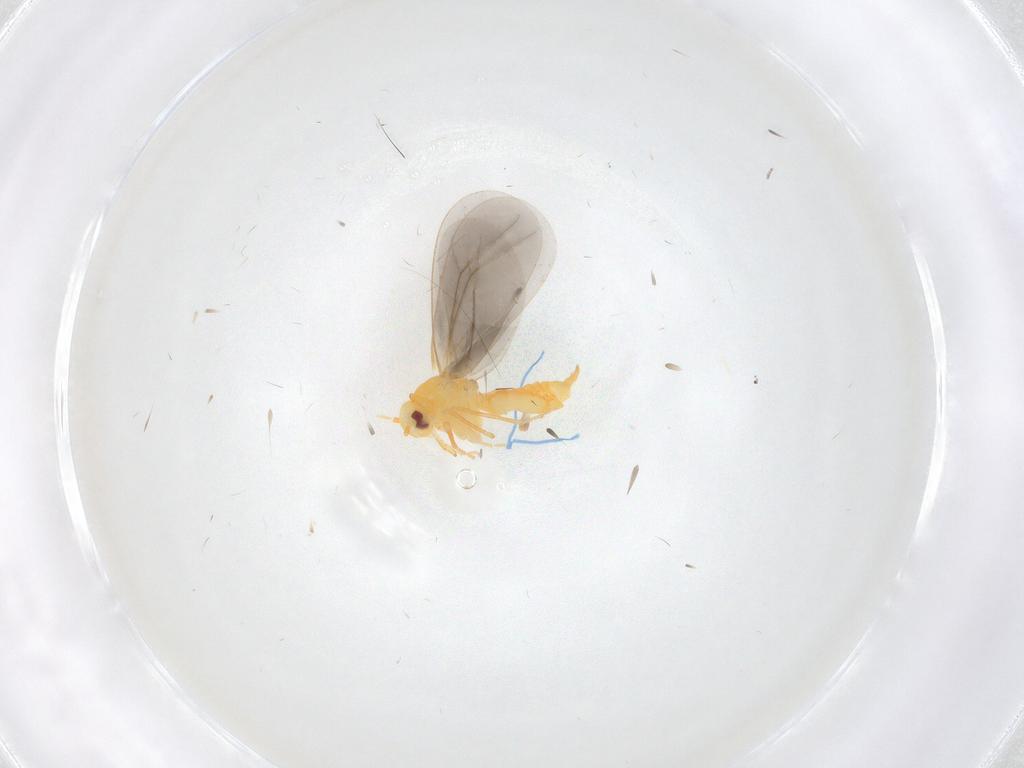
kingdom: Animalia
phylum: Arthropoda
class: Insecta
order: Hemiptera
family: Aleyrodidae
